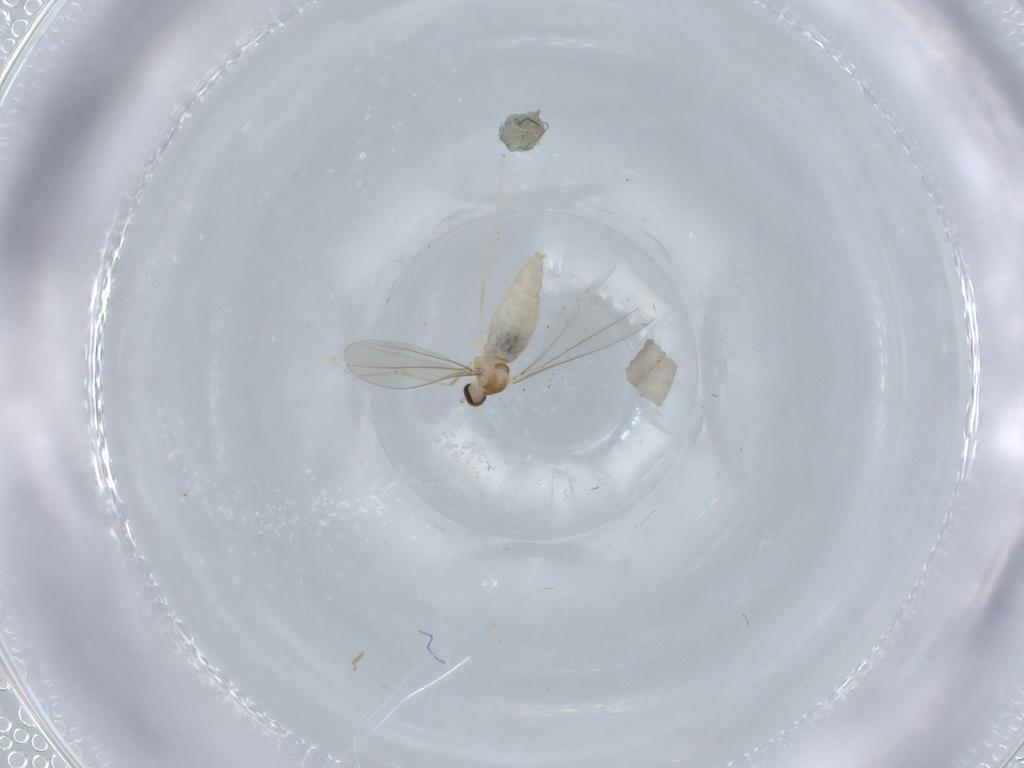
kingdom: Animalia
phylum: Arthropoda
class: Insecta
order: Diptera
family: Cecidomyiidae
